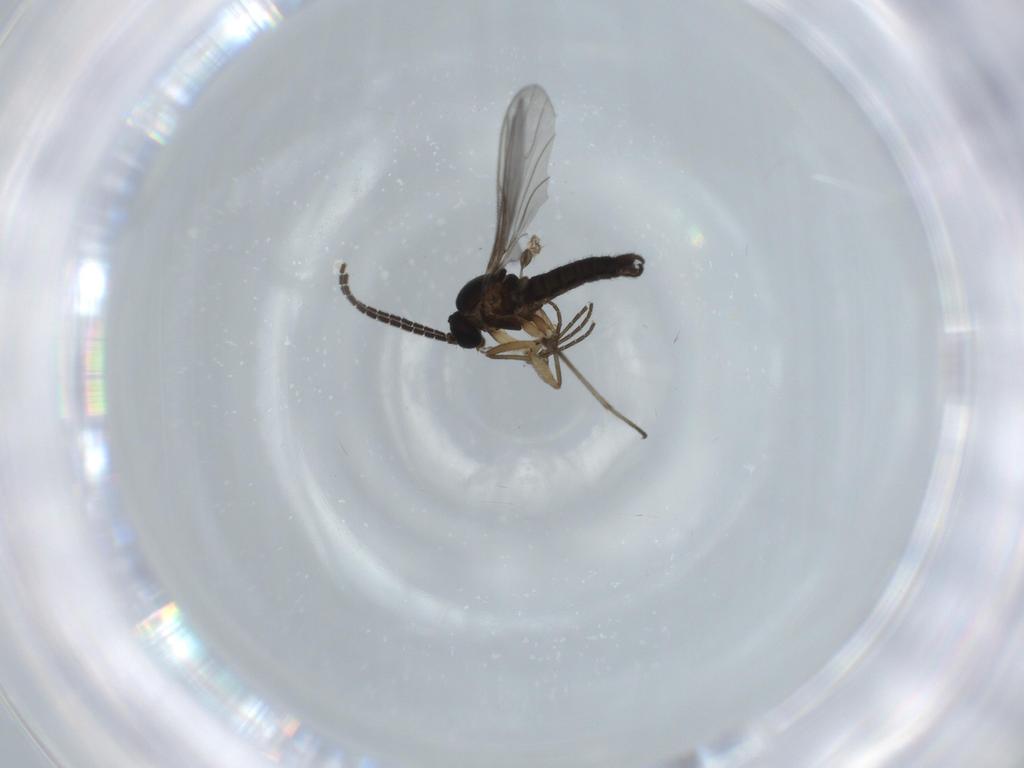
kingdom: Animalia
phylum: Arthropoda
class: Insecta
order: Diptera
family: Sciaridae
